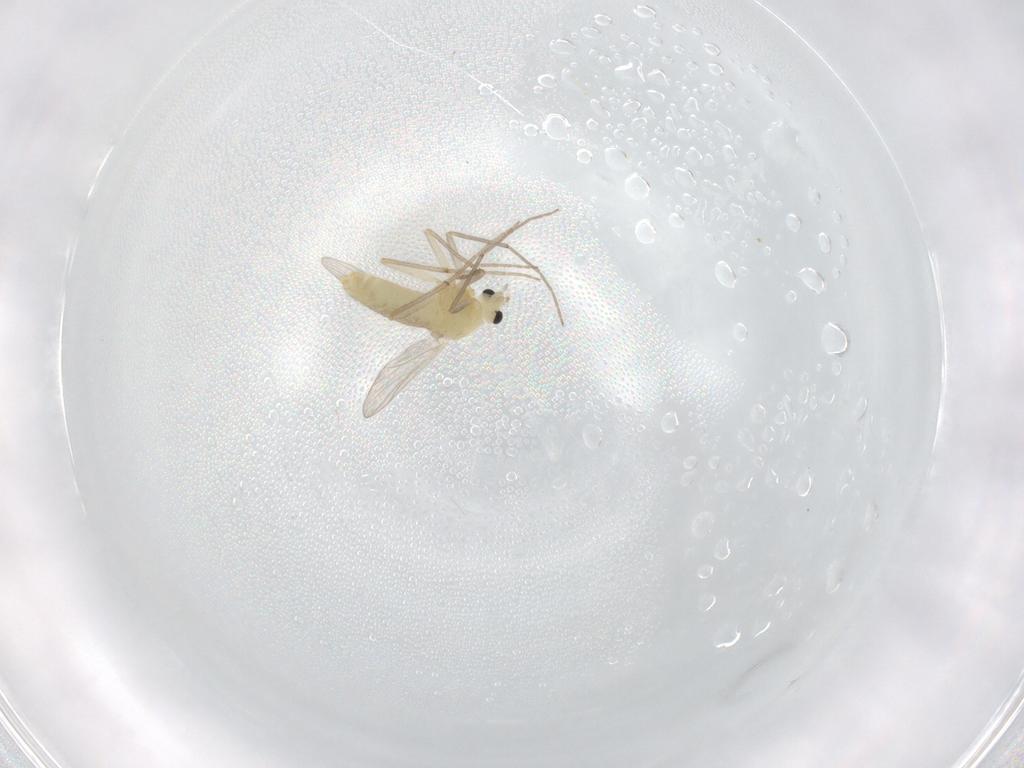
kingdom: Animalia
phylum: Arthropoda
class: Insecta
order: Diptera
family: Chironomidae
